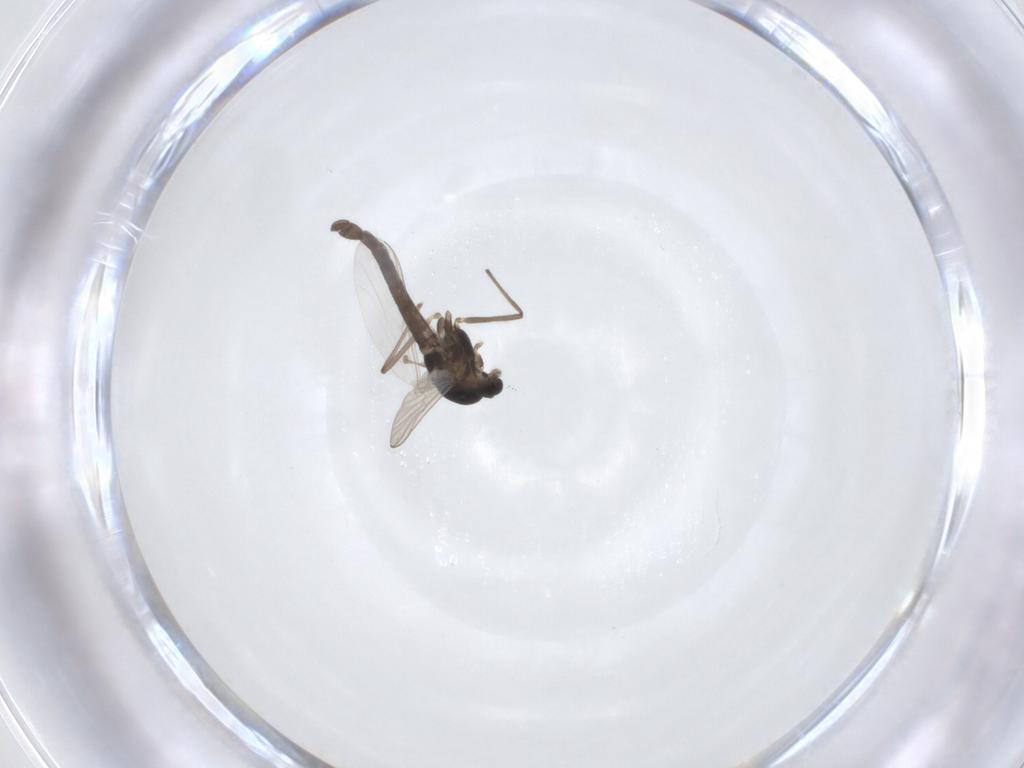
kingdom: Animalia
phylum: Arthropoda
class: Insecta
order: Diptera
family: Chironomidae
